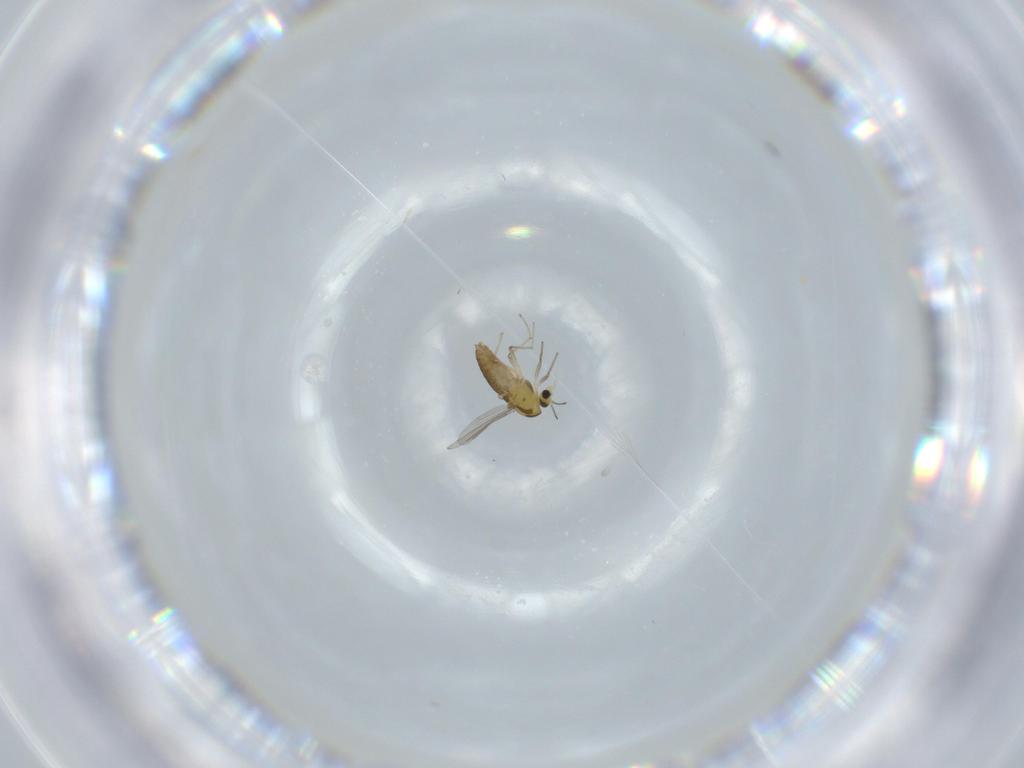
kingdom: Animalia
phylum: Arthropoda
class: Insecta
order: Diptera
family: Chironomidae
